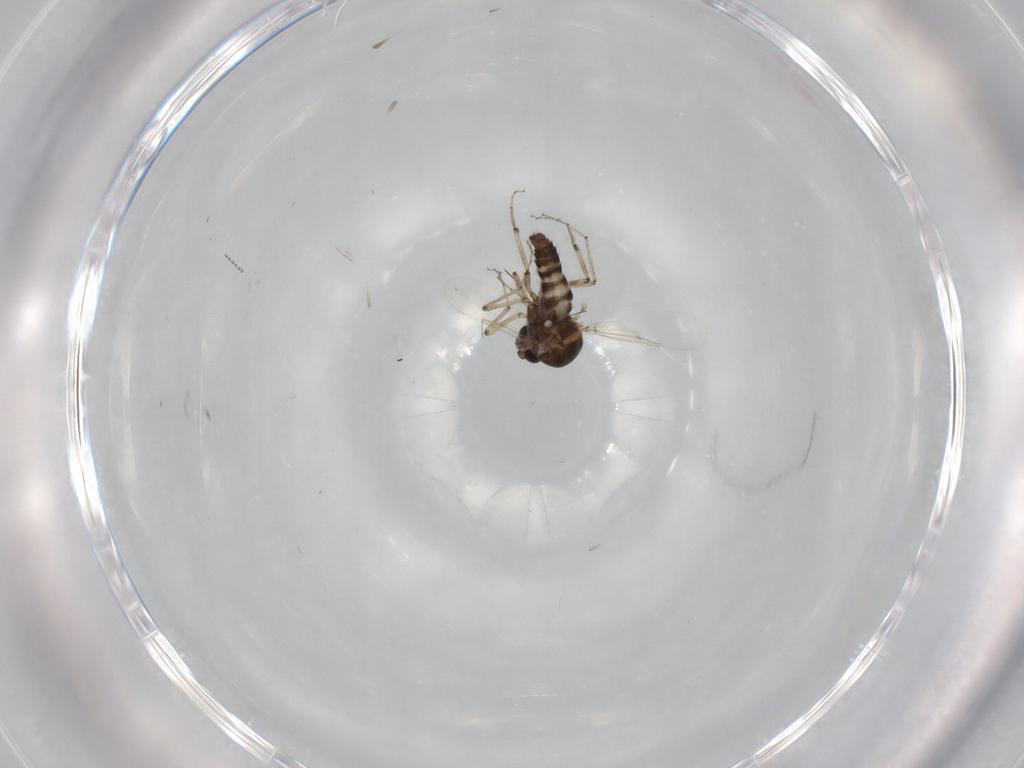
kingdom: Animalia
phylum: Arthropoda
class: Insecta
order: Diptera
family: Ceratopogonidae
